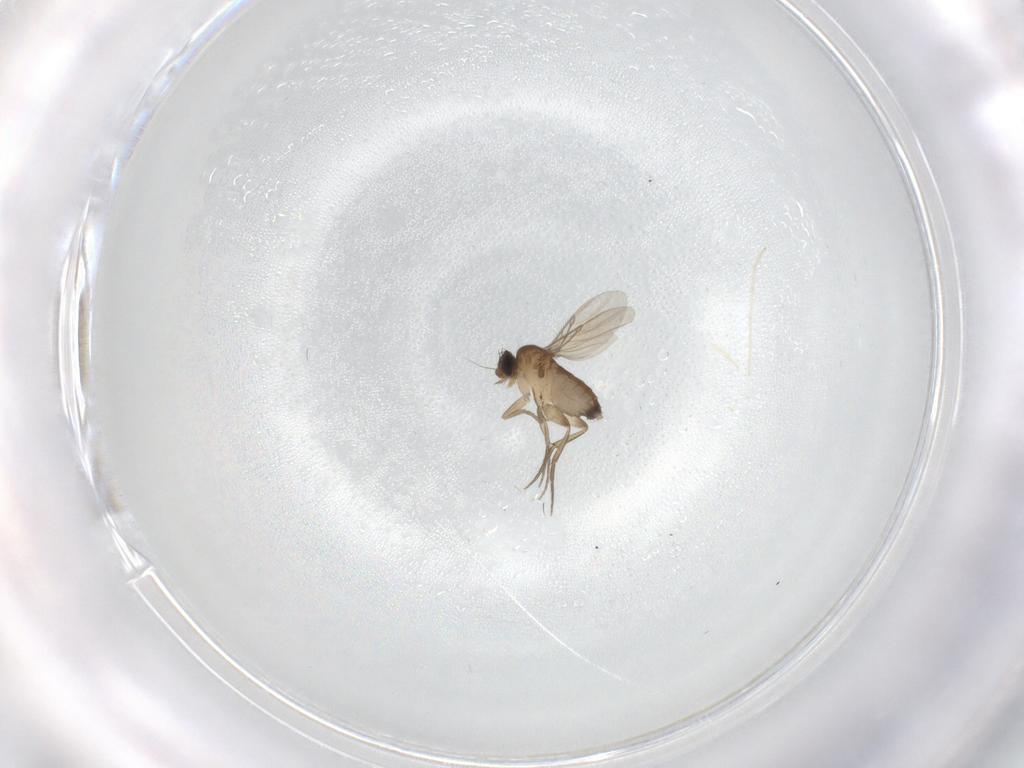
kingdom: Animalia
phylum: Arthropoda
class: Insecta
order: Diptera
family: Phoridae
